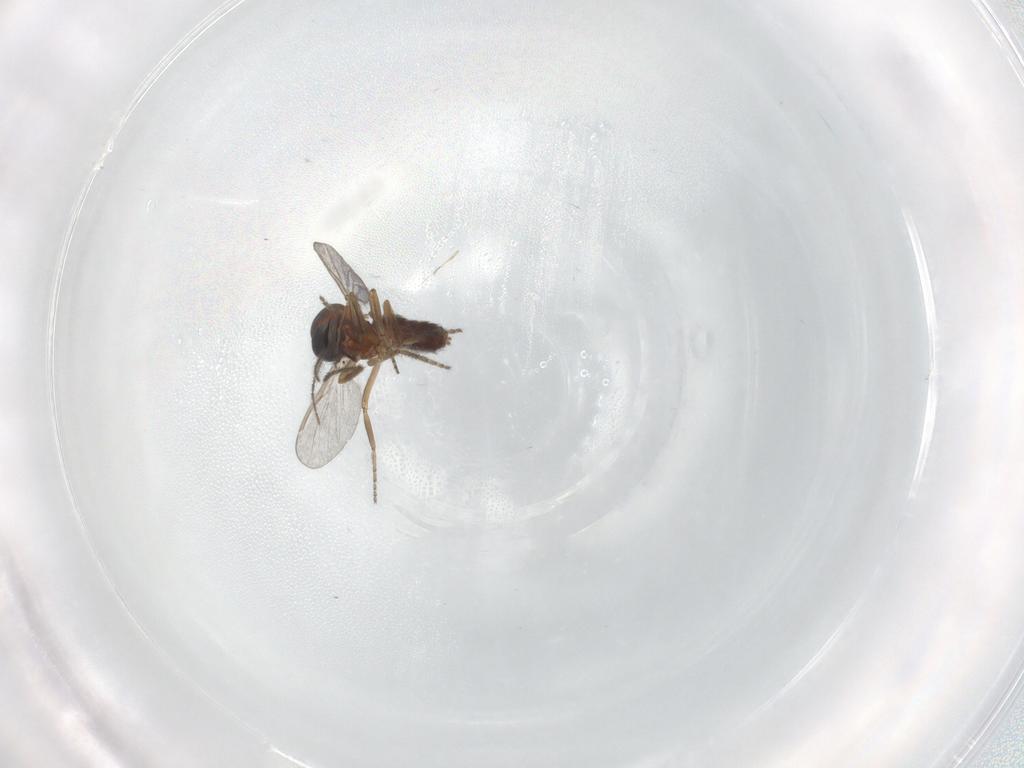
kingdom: Animalia
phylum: Arthropoda
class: Insecta
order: Diptera
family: Ceratopogonidae
